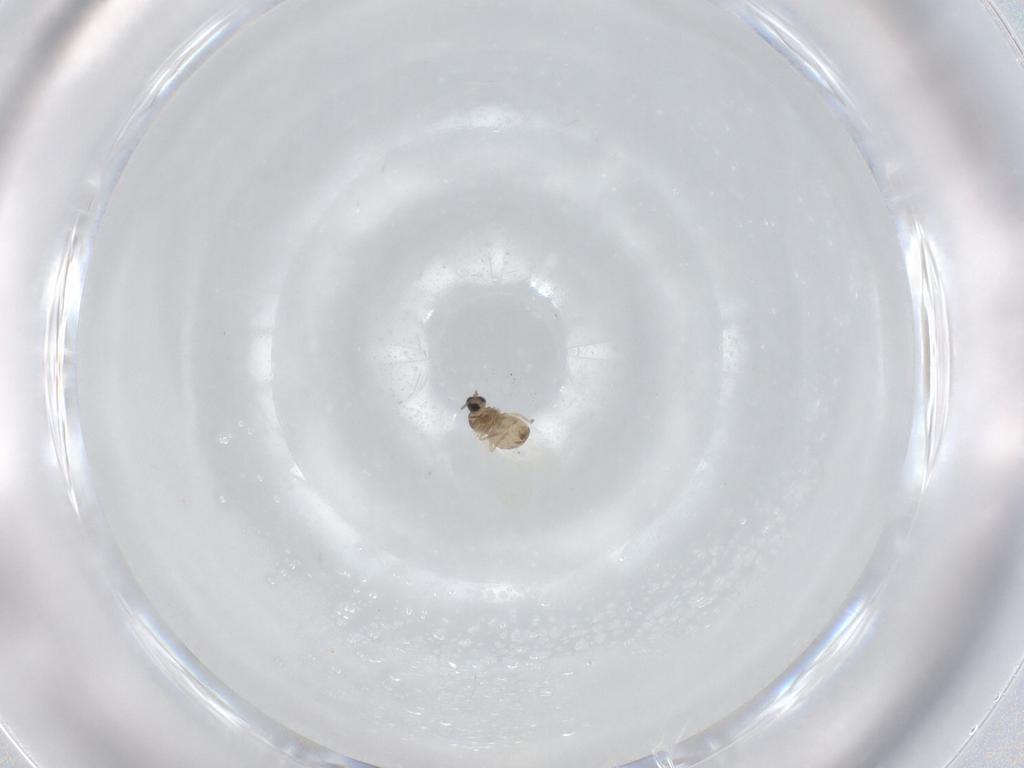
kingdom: Animalia
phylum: Arthropoda
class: Insecta
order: Diptera
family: Cecidomyiidae
